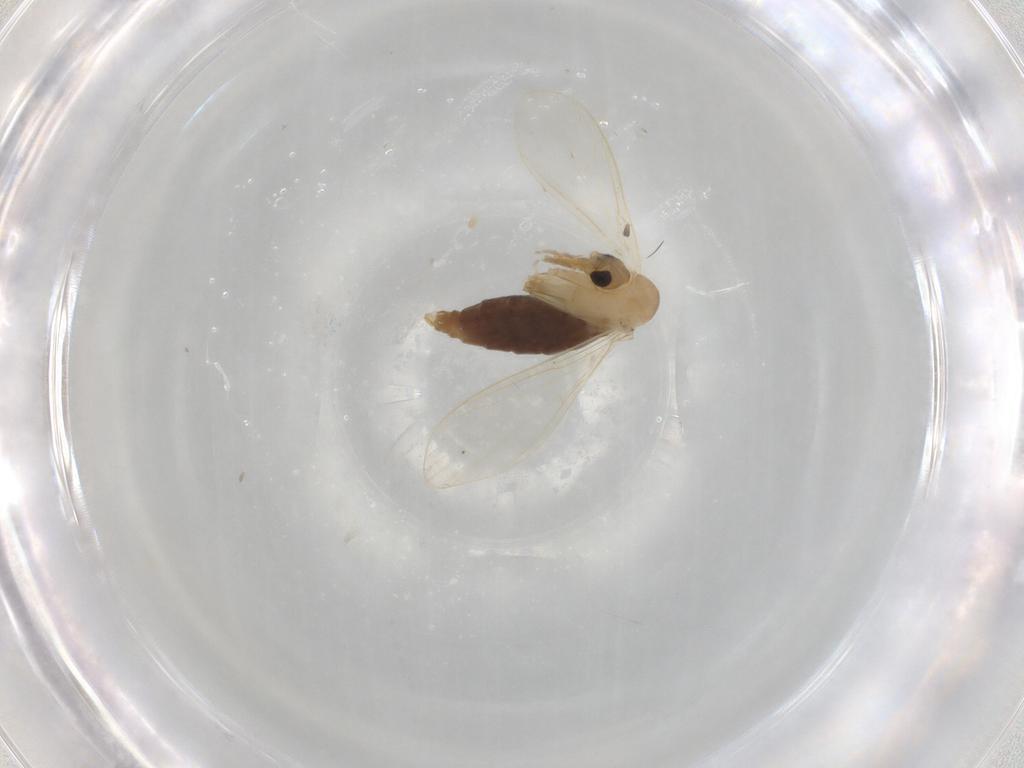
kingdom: Animalia
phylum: Arthropoda
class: Insecta
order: Diptera
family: Psychodidae
